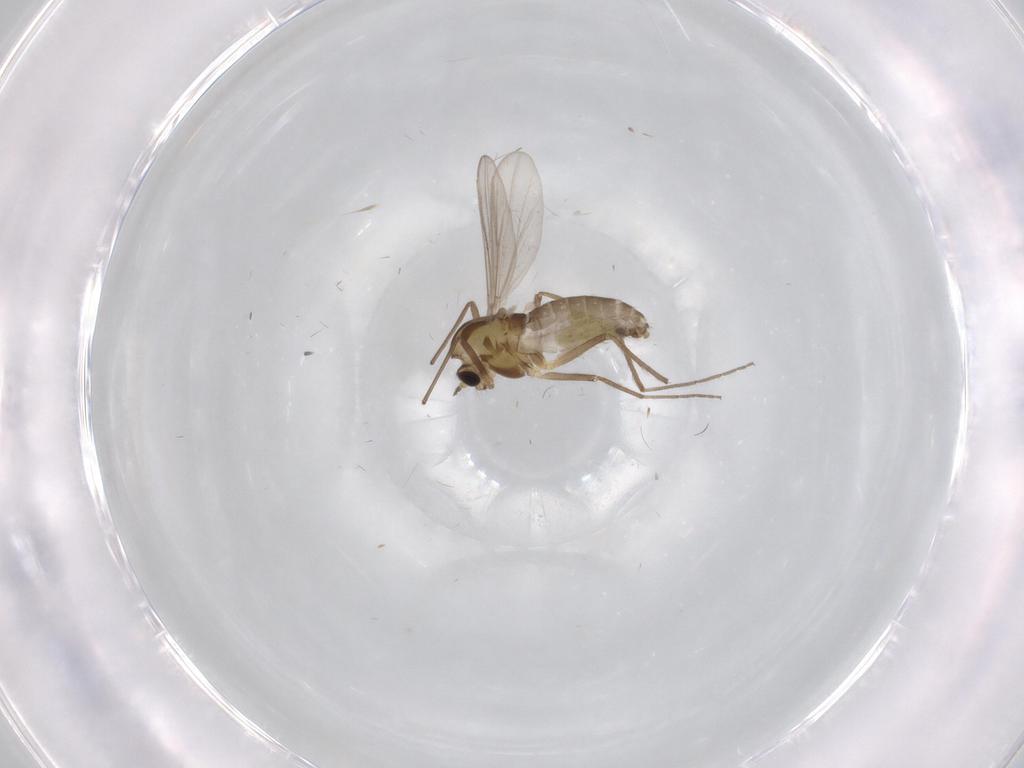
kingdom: Animalia
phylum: Arthropoda
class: Insecta
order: Diptera
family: Chironomidae
